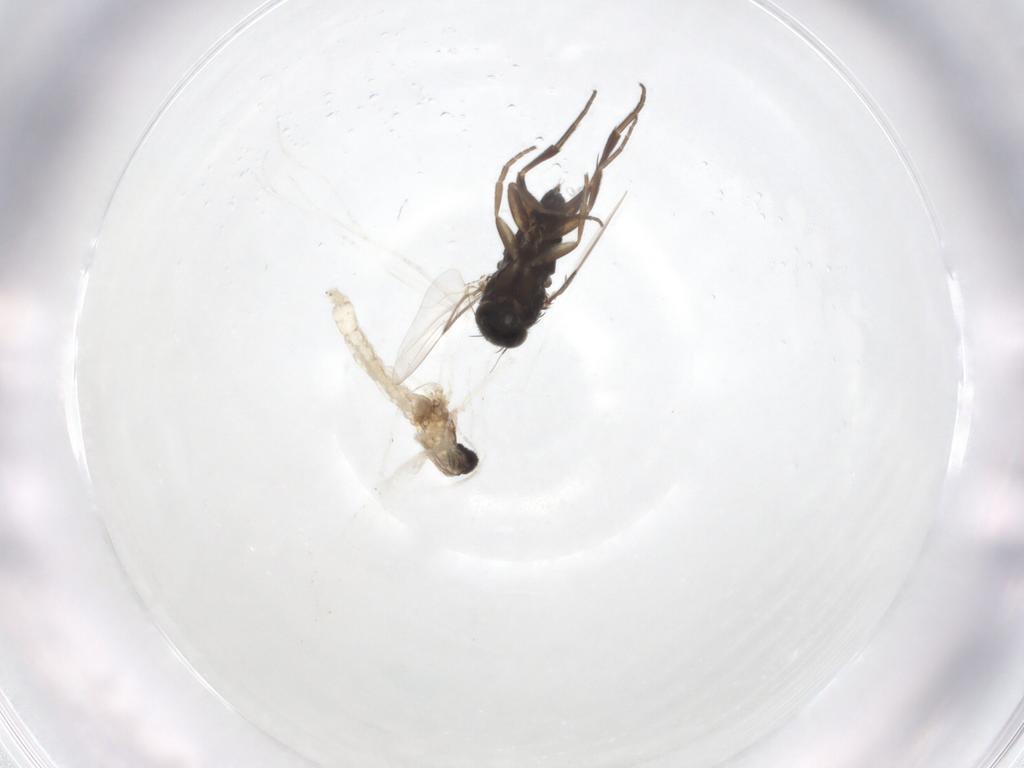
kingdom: Animalia
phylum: Arthropoda
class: Insecta
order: Diptera
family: Phoridae
